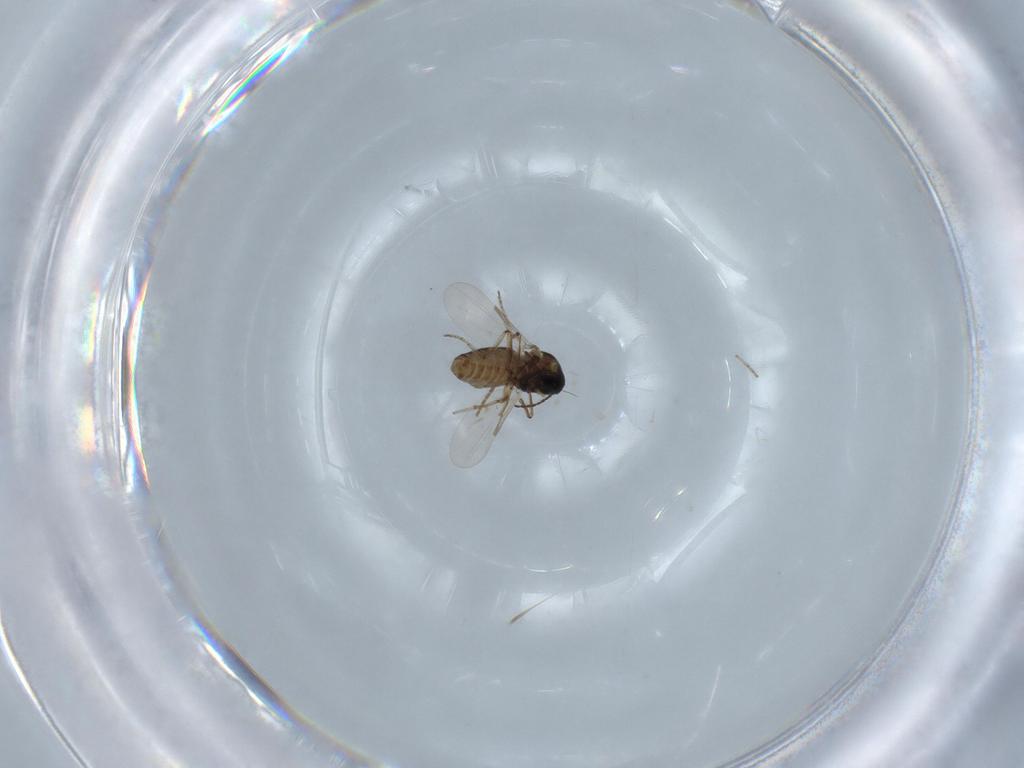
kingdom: Animalia
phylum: Arthropoda
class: Insecta
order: Diptera
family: Ceratopogonidae
